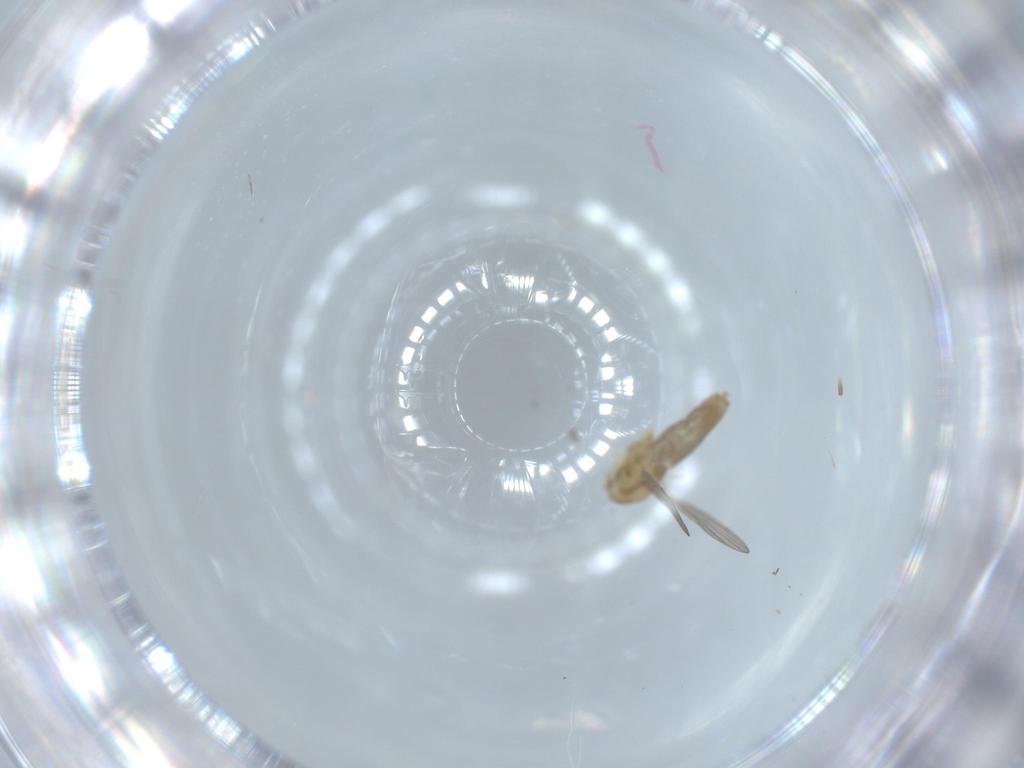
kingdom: Animalia
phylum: Arthropoda
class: Insecta
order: Diptera
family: Chironomidae
